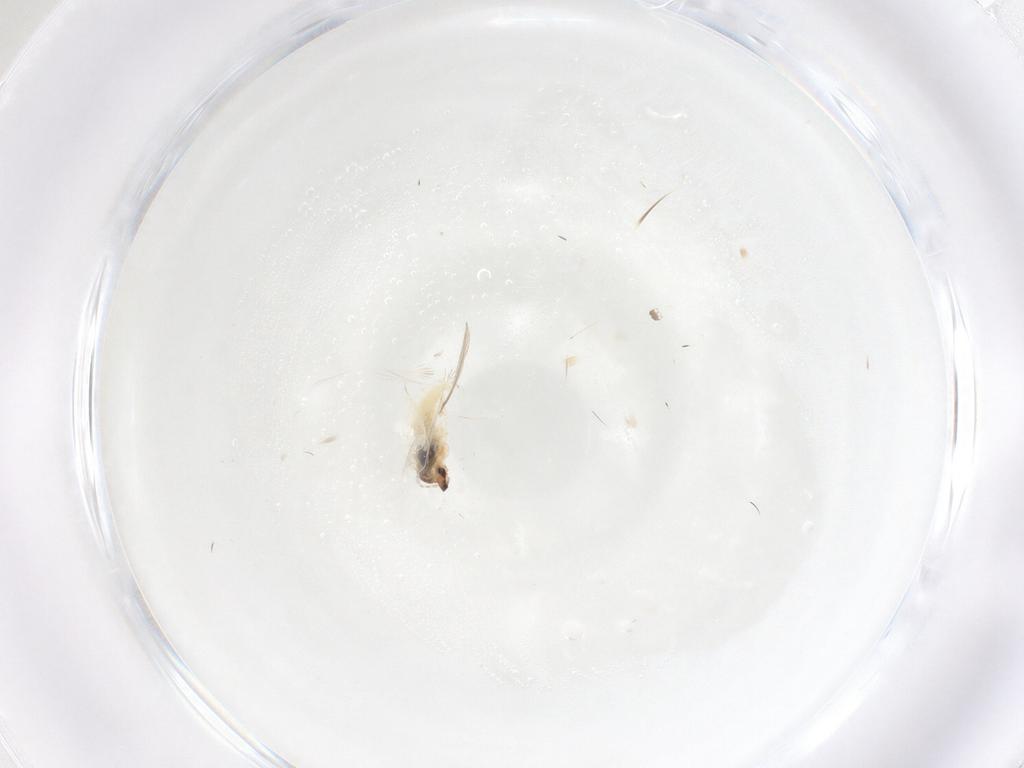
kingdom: Animalia
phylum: Arthropoda
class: Insecta
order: Diptera
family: Cecidomyiidae
